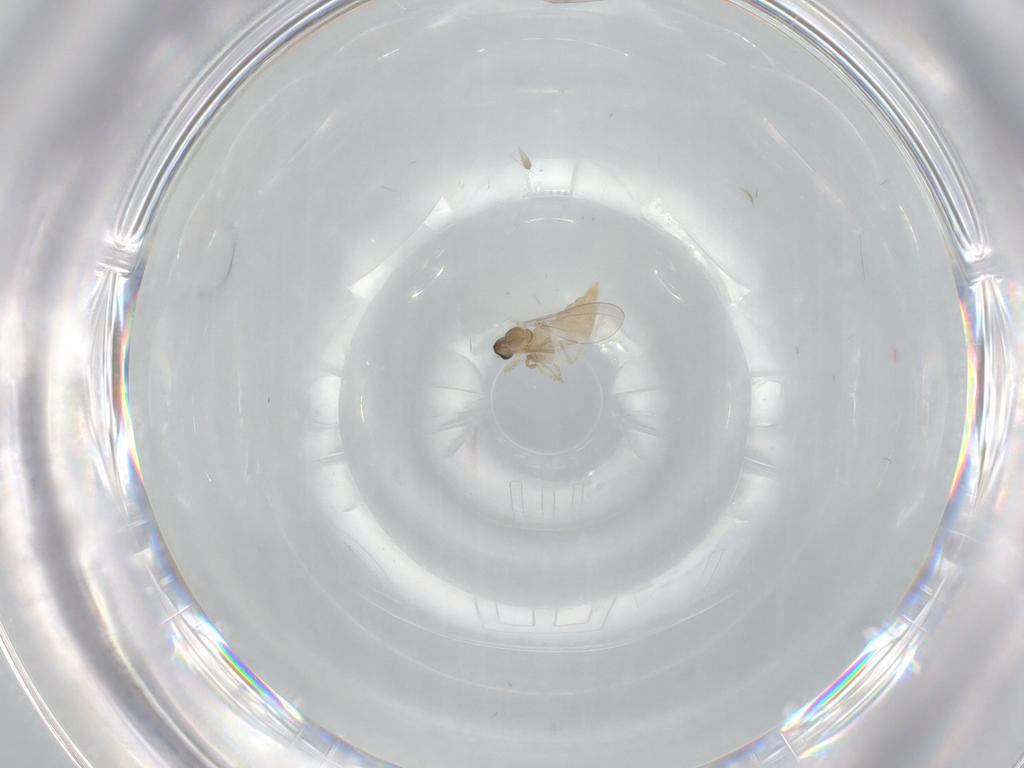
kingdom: Animalia
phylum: Arthropoda
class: Insecta
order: Diptera
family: Cecidomyiidae
